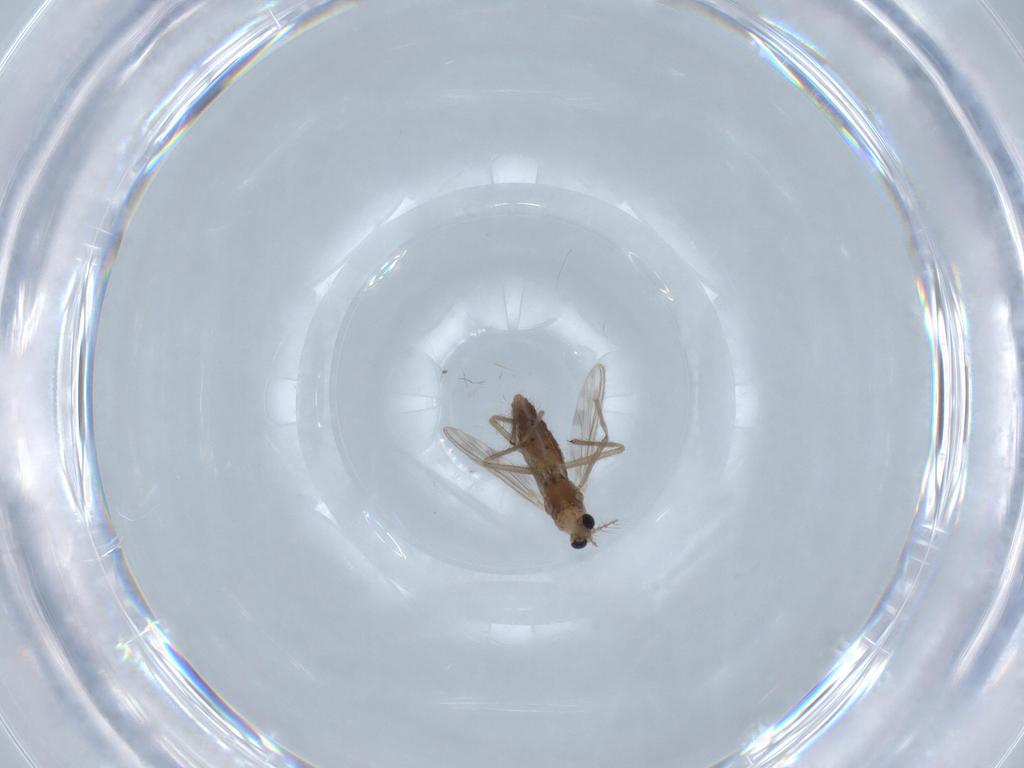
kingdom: Animalia
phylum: Arthropoda
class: Insecta
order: Diptera
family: Chironomidae
